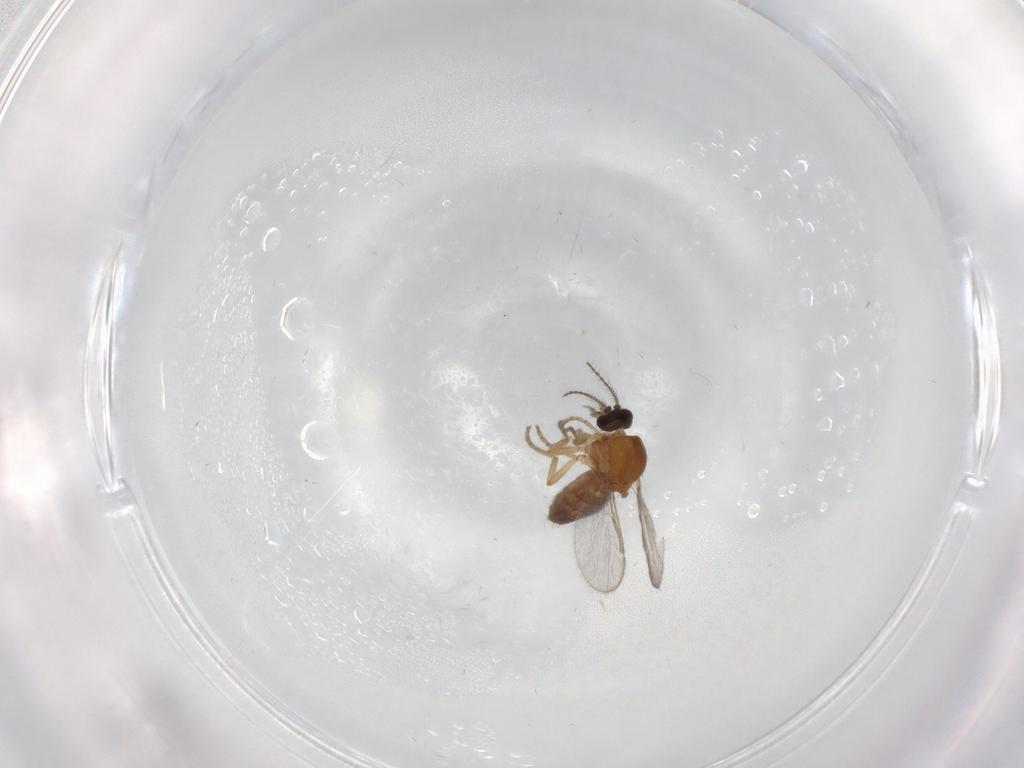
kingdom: Animalia
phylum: Arthropoda
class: Insecta
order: Diptera
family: Ceratopogonidae
